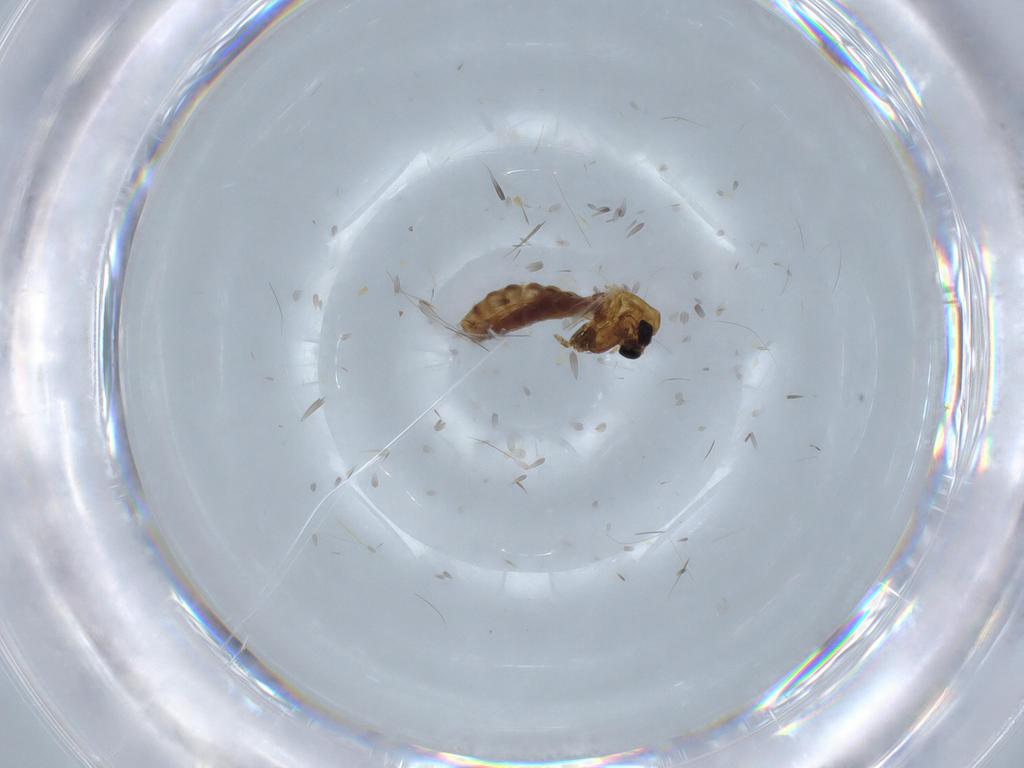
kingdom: Animalia
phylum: Arthropoda
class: Insecta
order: Diptera
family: Chironomidae
